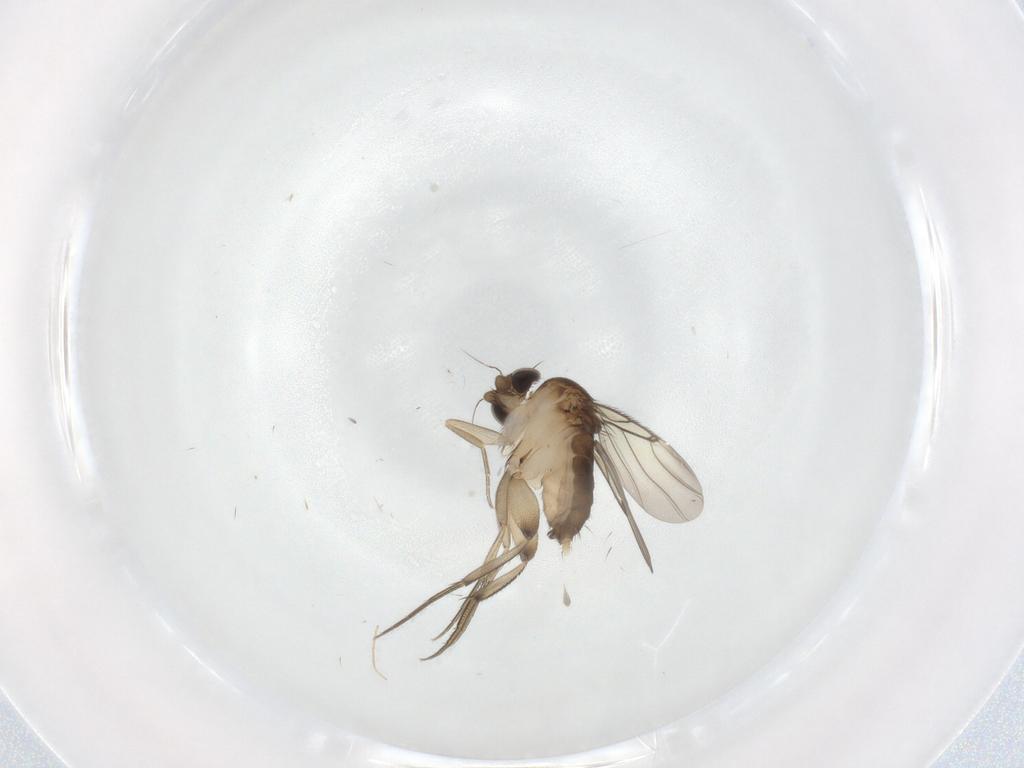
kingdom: Animalia
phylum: Arthropoda
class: Insecta
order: Diptera
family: Phoridae
